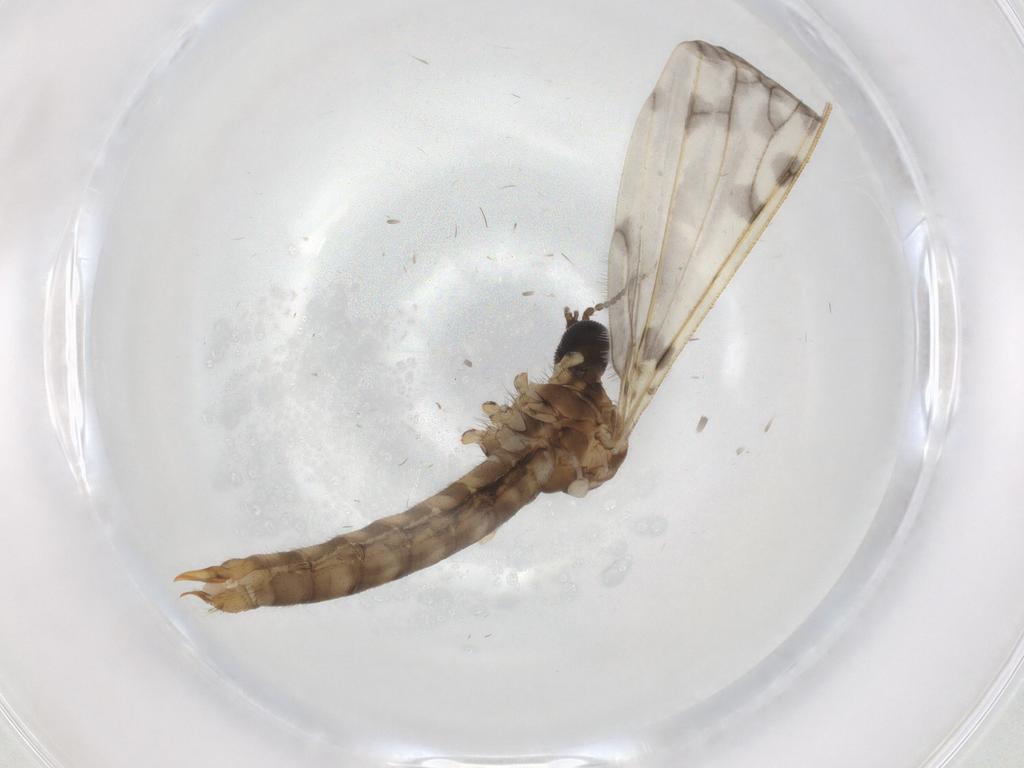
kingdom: Animalia
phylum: Arthropoda
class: Insecta
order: Diptera
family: Limoniidae
